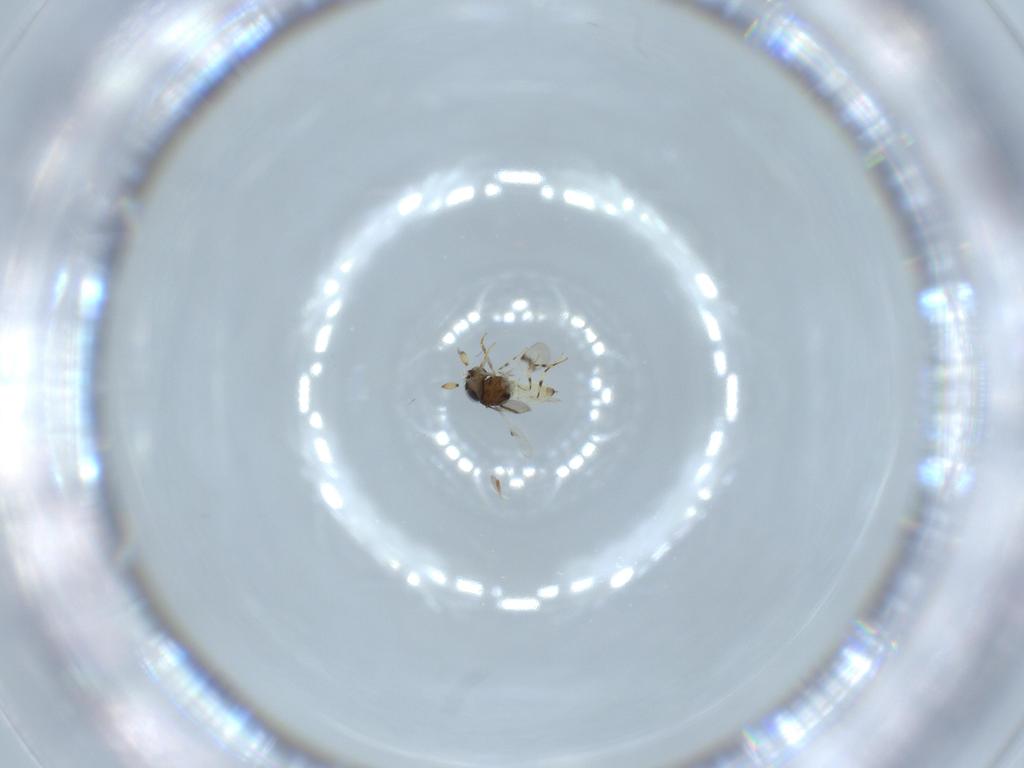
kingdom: Animalia
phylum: Arthropoda
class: Insecta
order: Hymenoptera
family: Scelionidae
